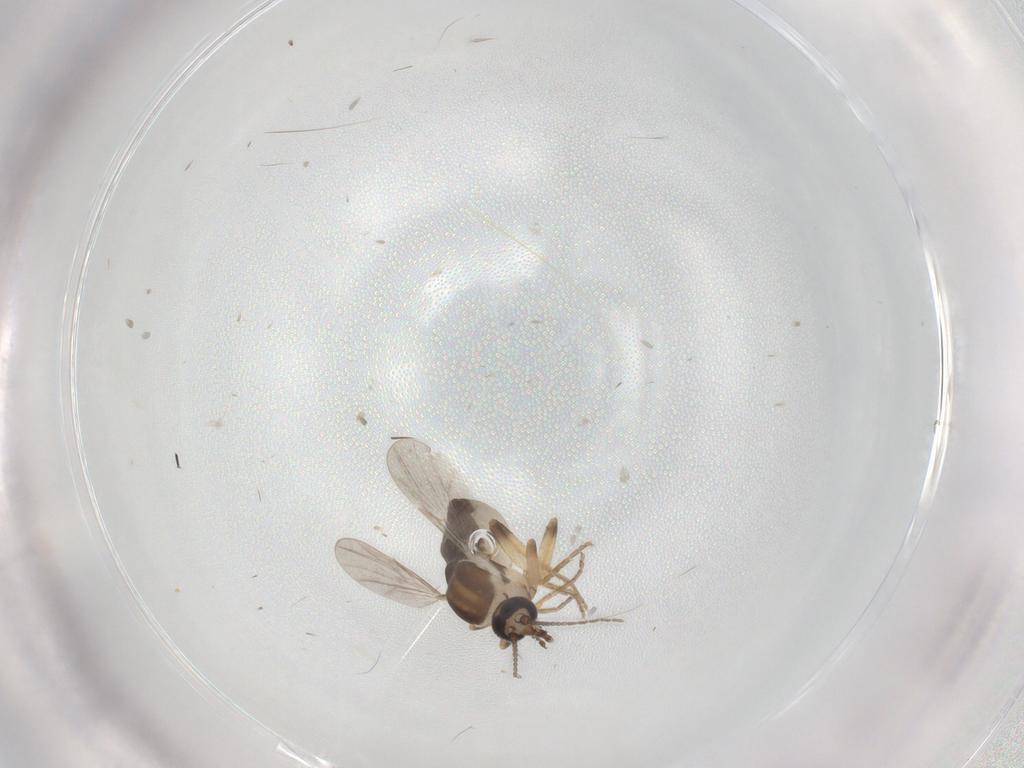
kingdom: Animalia
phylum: Arthropoda
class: Insecta
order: Diptera
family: Ceratopogonidae
